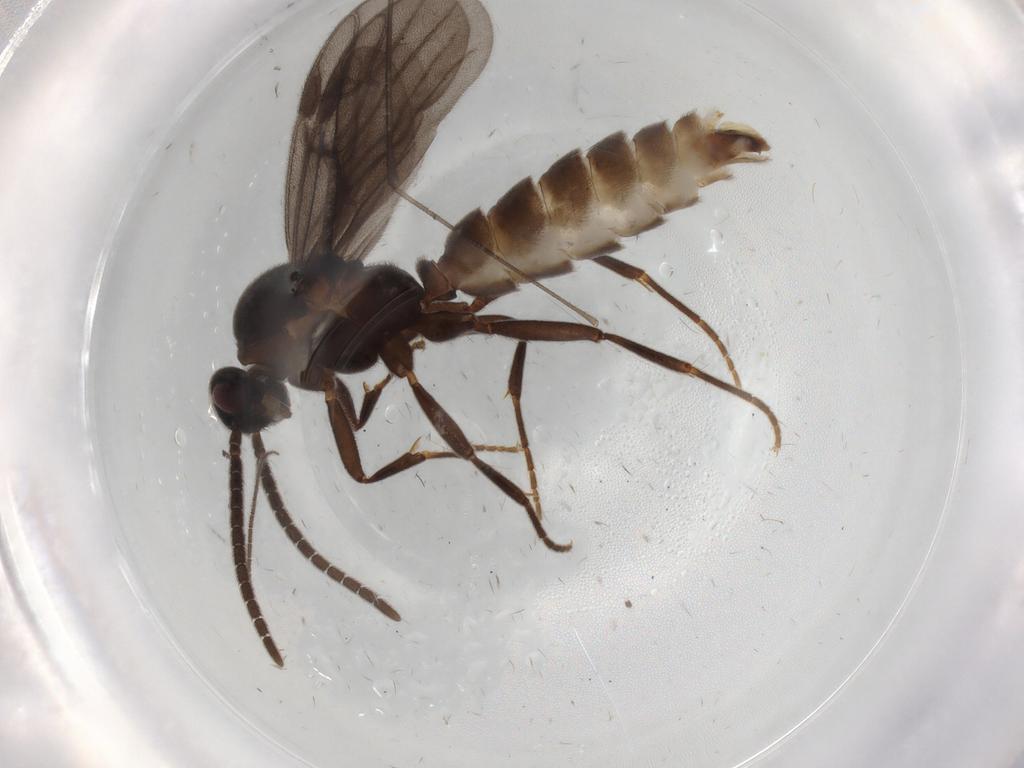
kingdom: Animalia
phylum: Arthropoda
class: Insecta
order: Hymenoptera
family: Formicidae
